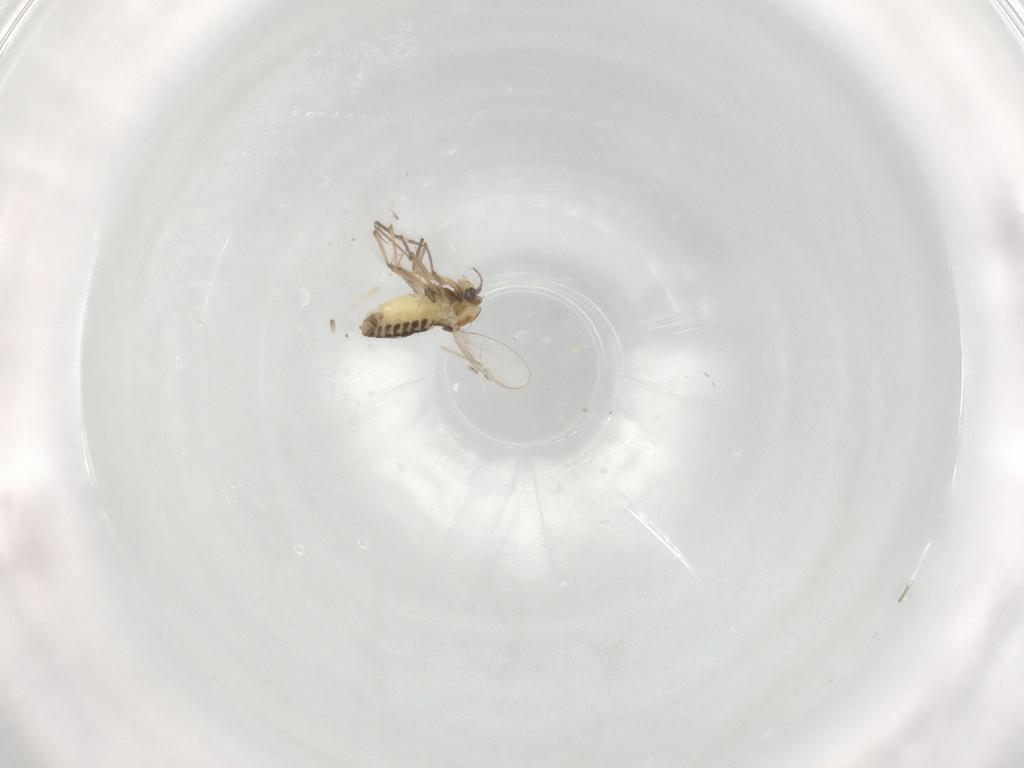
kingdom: Animalia
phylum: Arthropoda
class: Insecta
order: Diptera
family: Chironomidae
